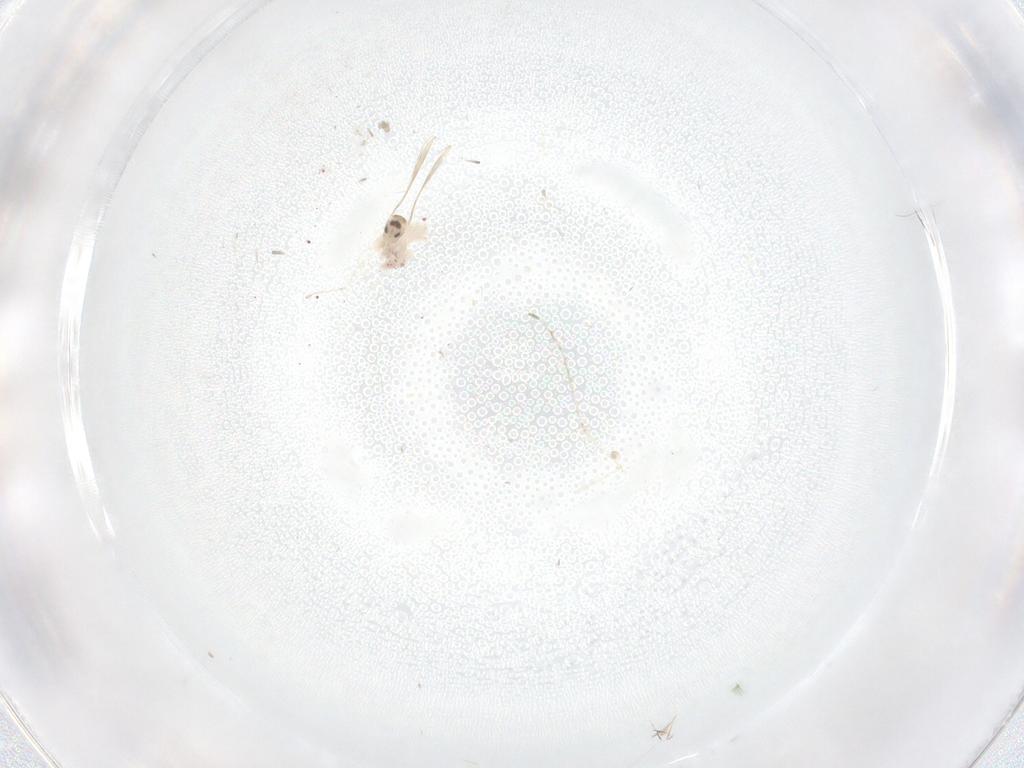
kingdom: Animalia
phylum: Arthropoda
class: Insecta
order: Diptera
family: Cecidomyiidae
